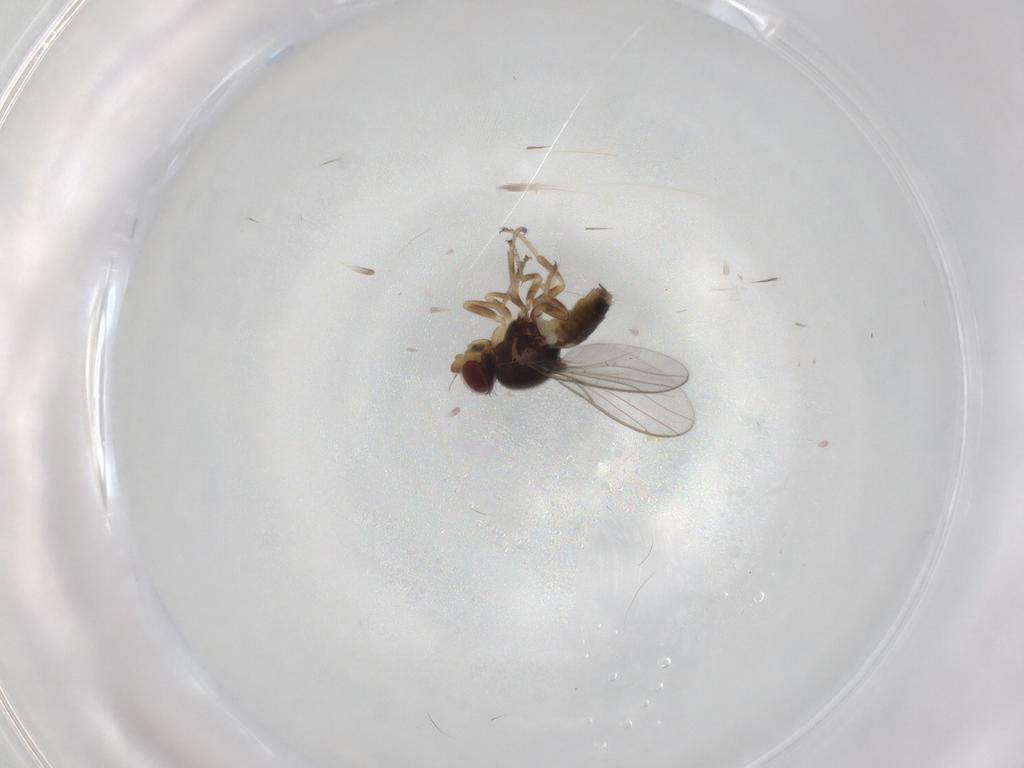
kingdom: Animalia
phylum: Arthropoda
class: Insecta
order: Diptera
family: Chloropidae
